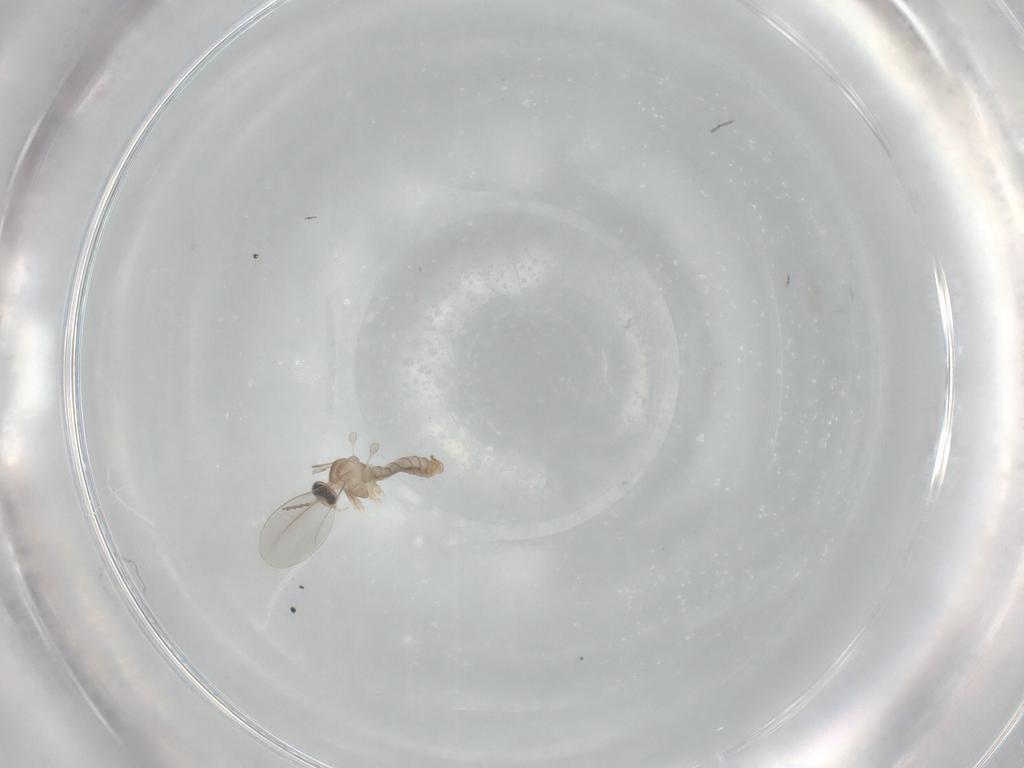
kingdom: Animalia
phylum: Arthropoda
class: Insecta
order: Diptera
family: Cecidomyiidae
